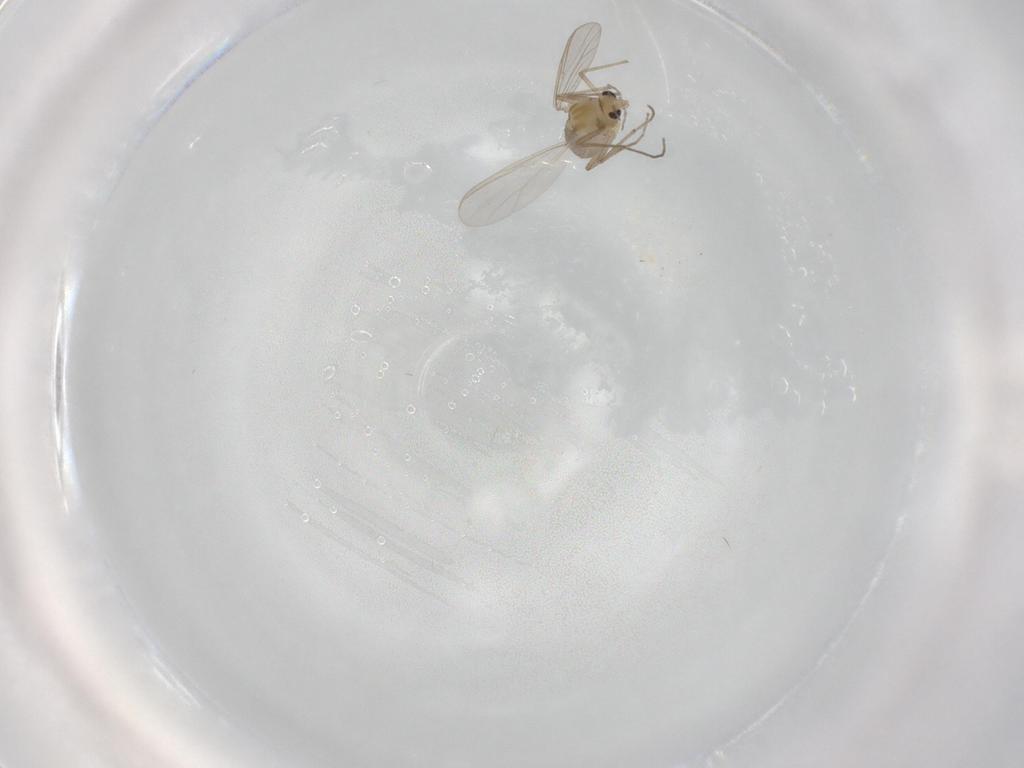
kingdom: Animalia
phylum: Arthropoda
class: Insecta
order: Diptera
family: Chironomidae
